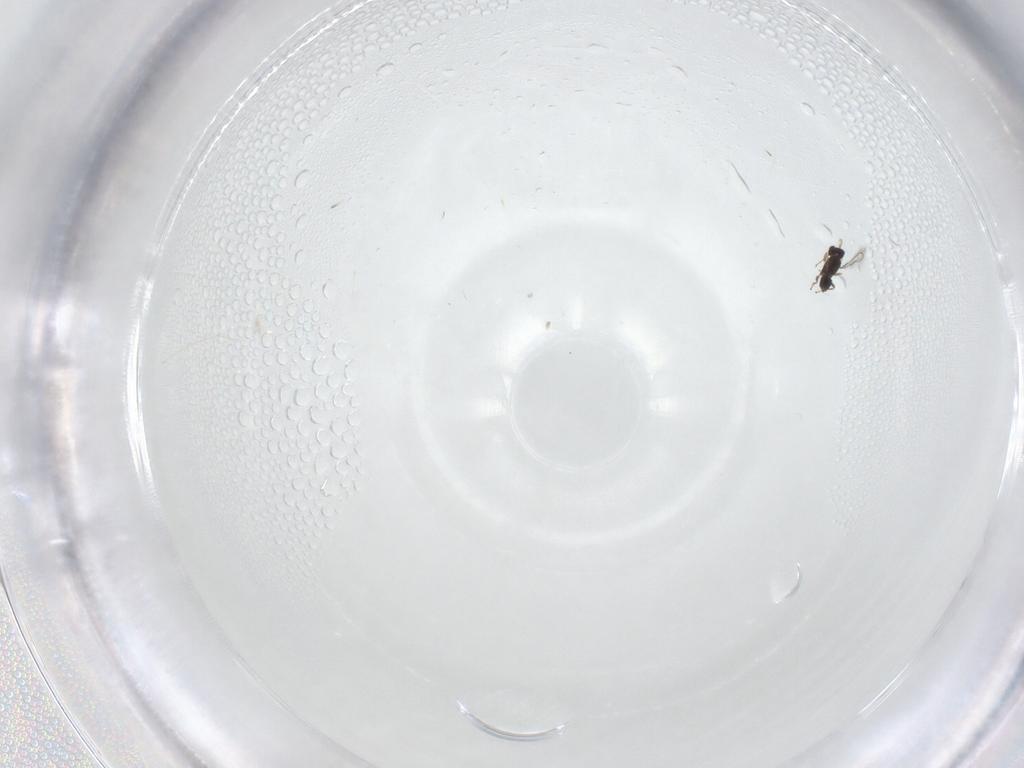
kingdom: Animalia
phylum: Arthropoda
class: Insecta
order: Hymenoptera
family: Mymaridae
